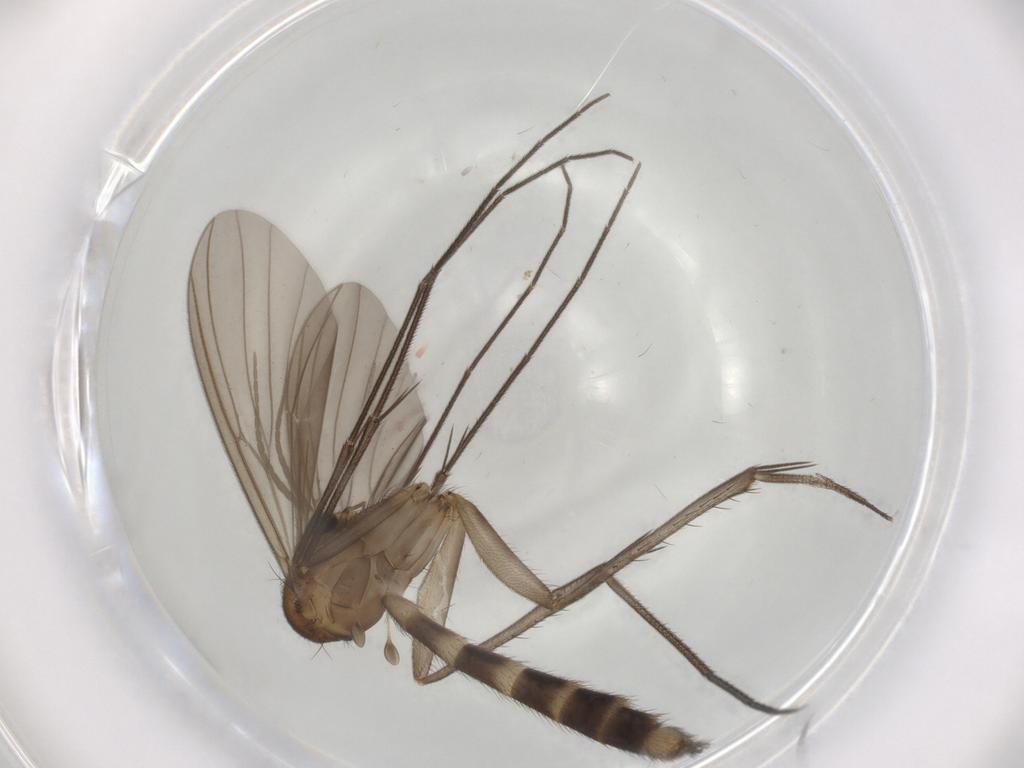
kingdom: Animalia
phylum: Arthropoda
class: Insecta
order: Diptera
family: Mycetophilidae
